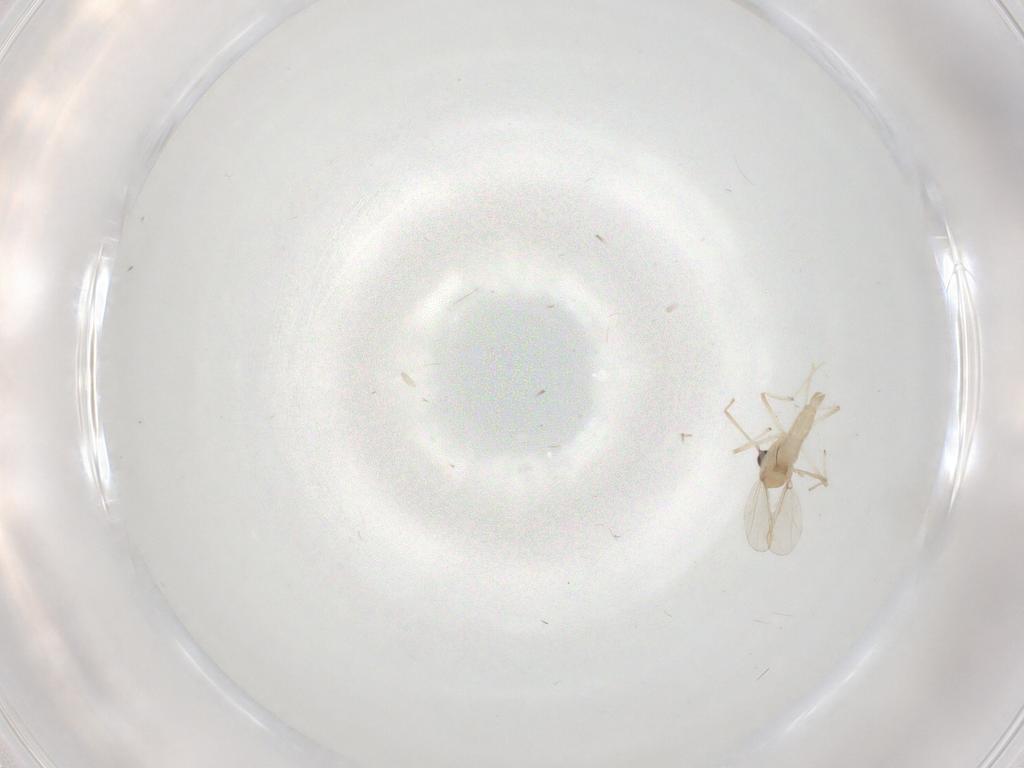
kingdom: Animalia
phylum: Arthropoda
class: Insecta
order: Diptera
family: Chironomidae
